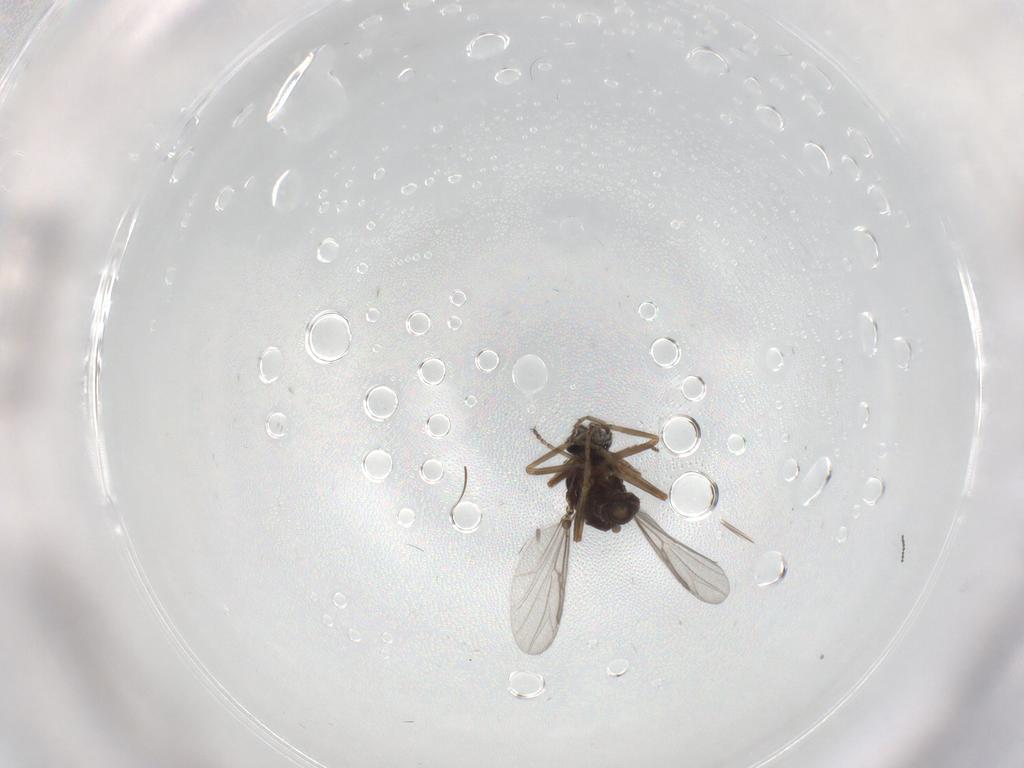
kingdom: Animalia
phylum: Arthropoda
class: Insecta
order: Diptera
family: Ceratopogonidae
